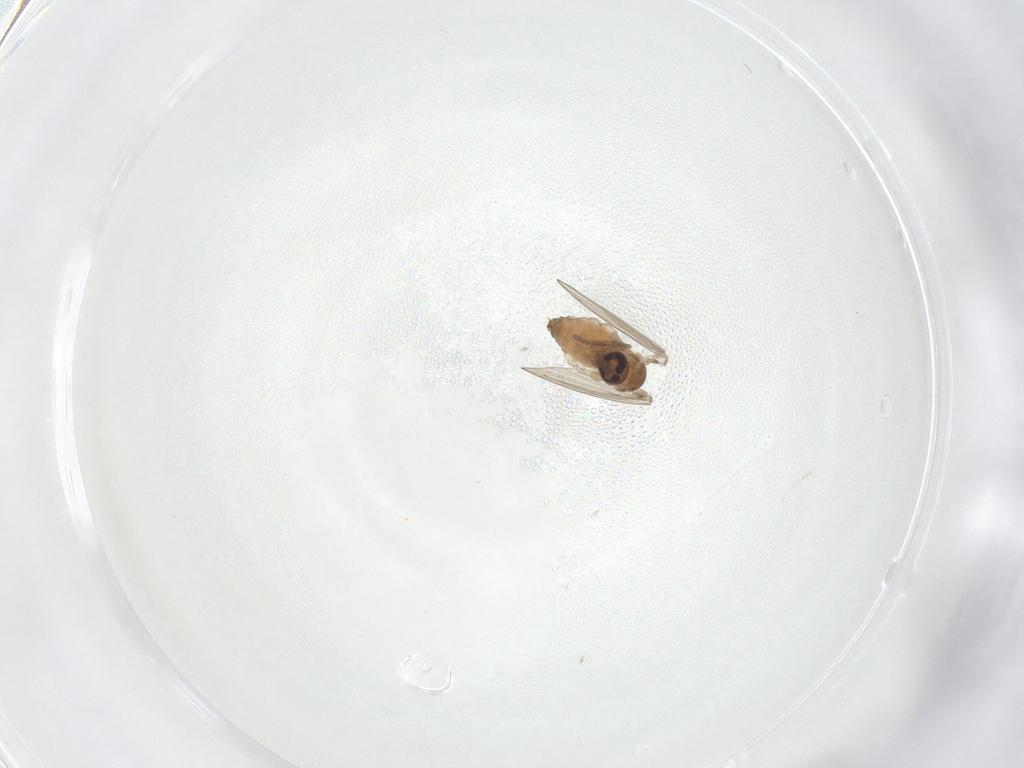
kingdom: Animalia
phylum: Arthropoda
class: Insecta
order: Diptera
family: Psychodidae
